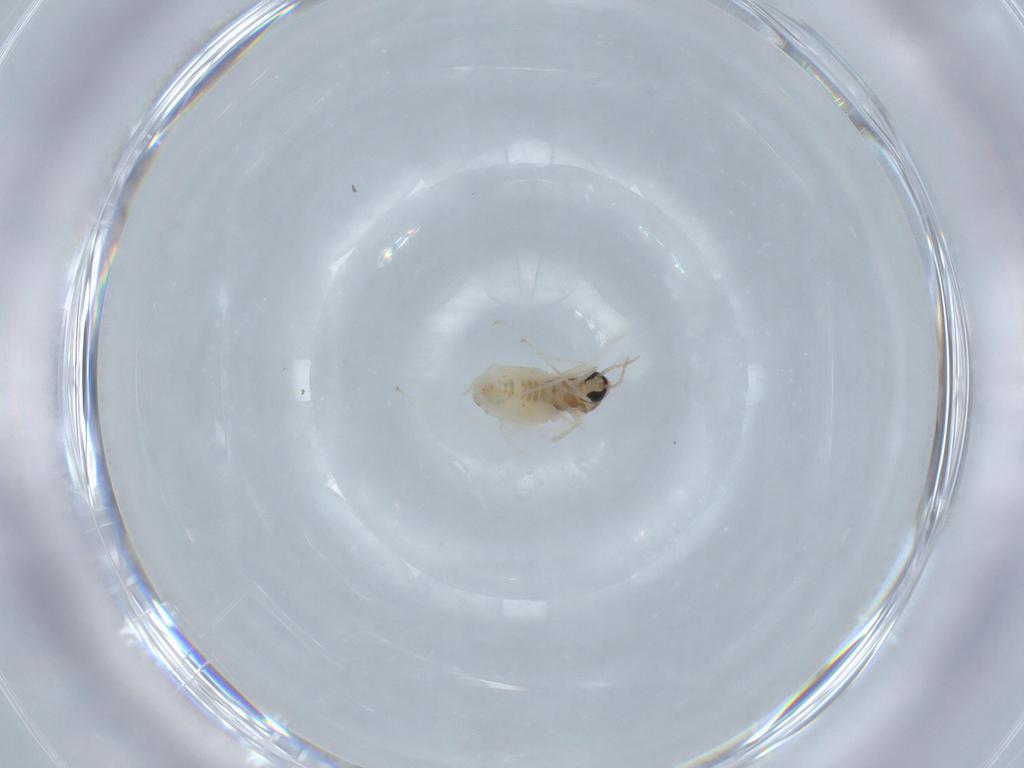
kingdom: Animalia
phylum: Arthropoda
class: Insecta
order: Diptera
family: Cecidomyiidae
